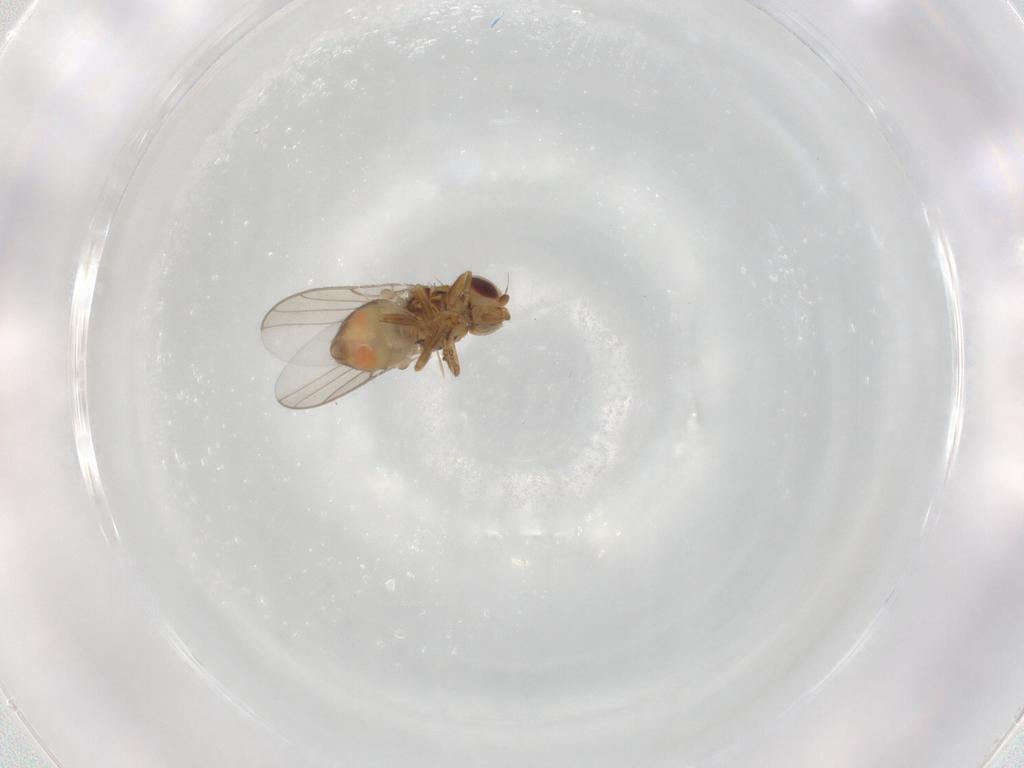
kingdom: Animalia
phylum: Arthropoda
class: Insecta
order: Diptera
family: Chloropidae
